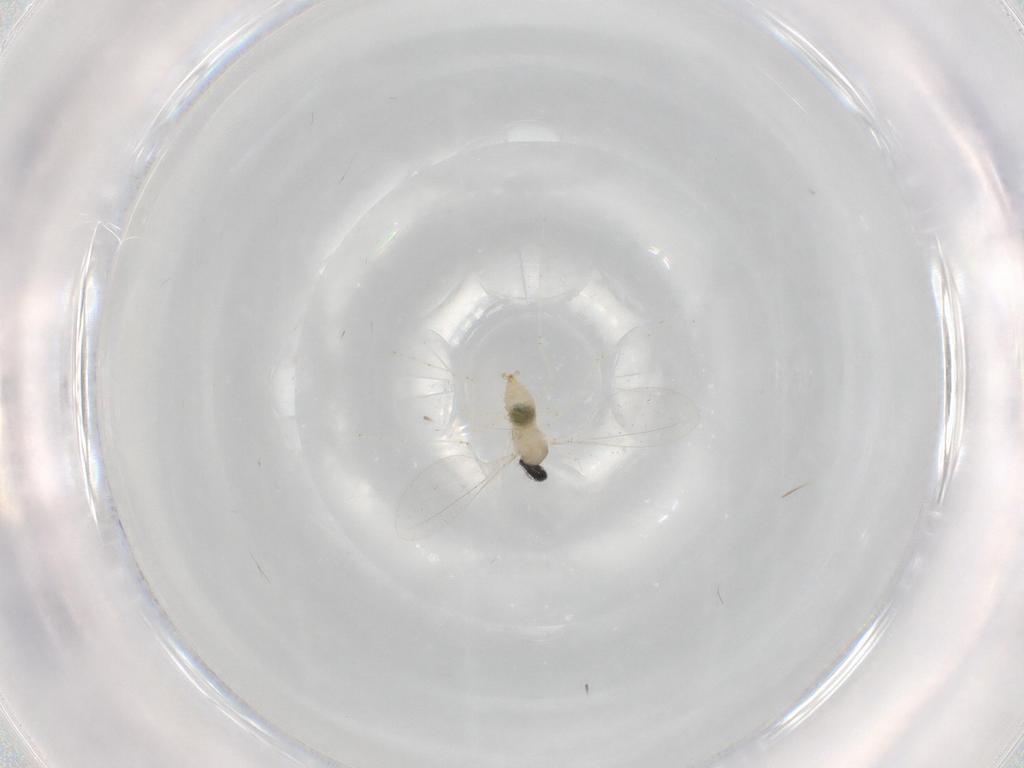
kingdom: Animalia
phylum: Arthropoda
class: Insecta
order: Diptera
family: Cecidomyiidae
